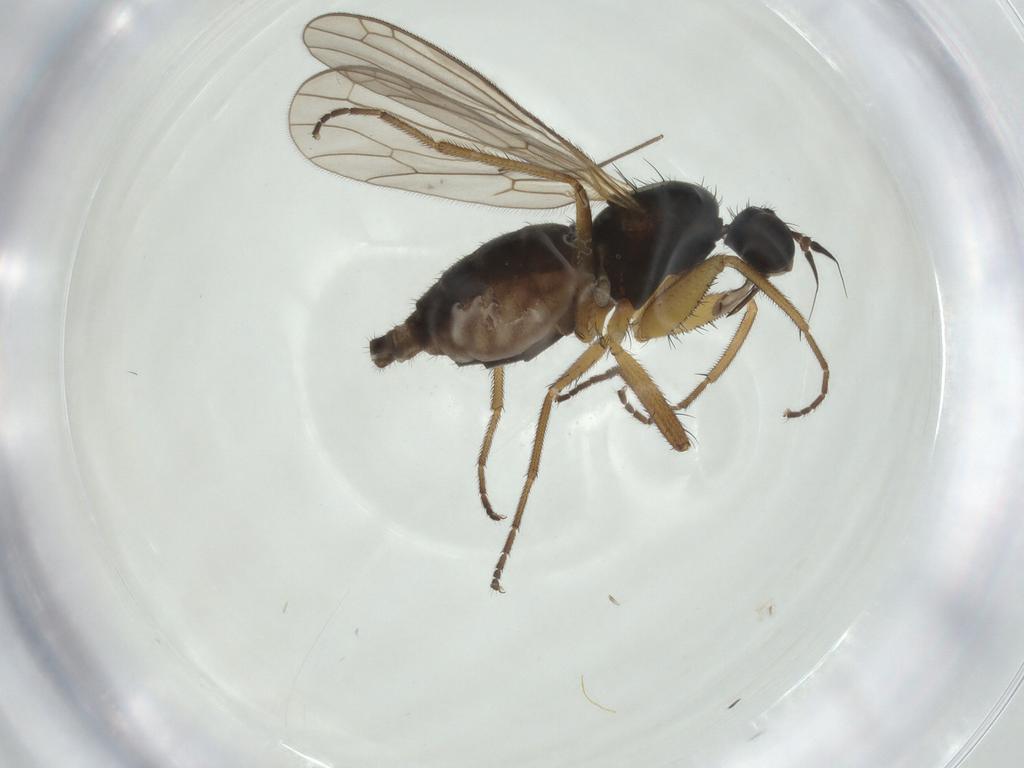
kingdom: Animalia
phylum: Arthropoda
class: Insecta
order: Diptera
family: Empididae
